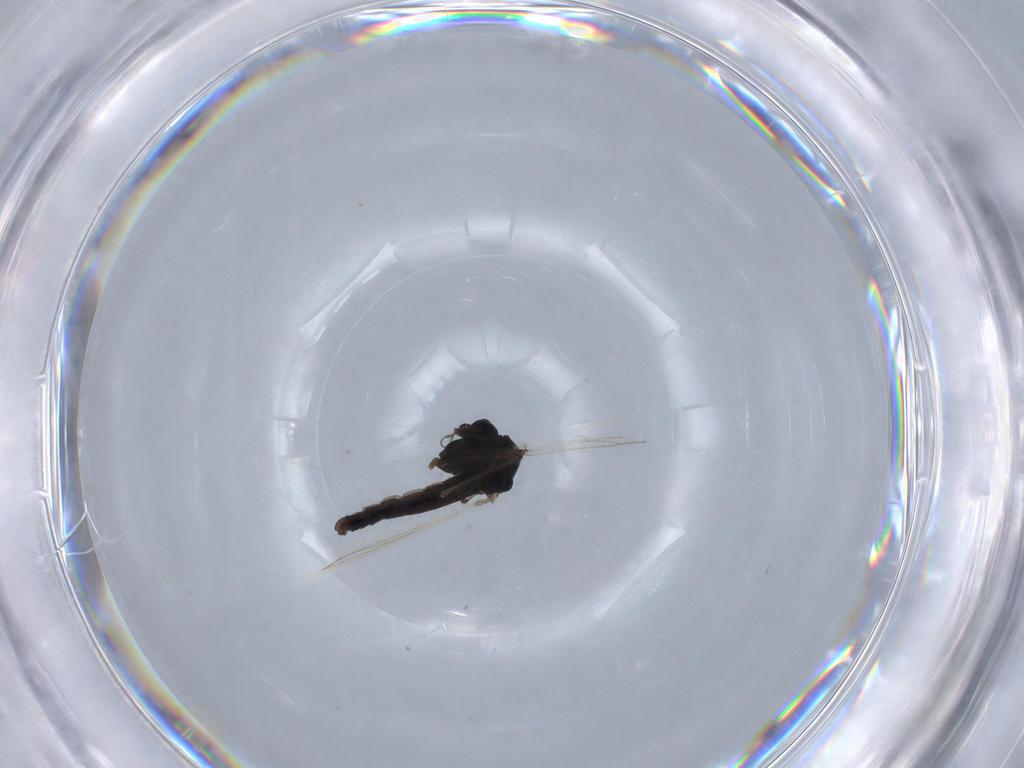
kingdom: Animalia
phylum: Arthropoda
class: Insecta
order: Diptera
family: Chironomidae
